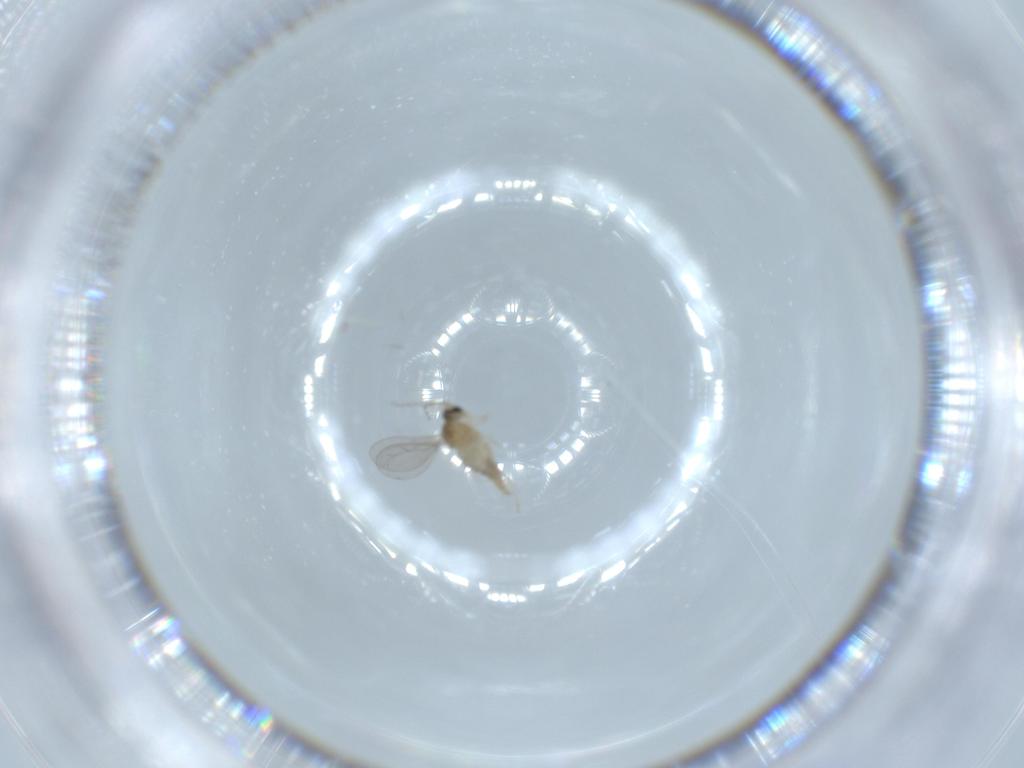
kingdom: Animalia
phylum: Arthropoda
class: Insecta
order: Diptera
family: Cecidomyiidae
